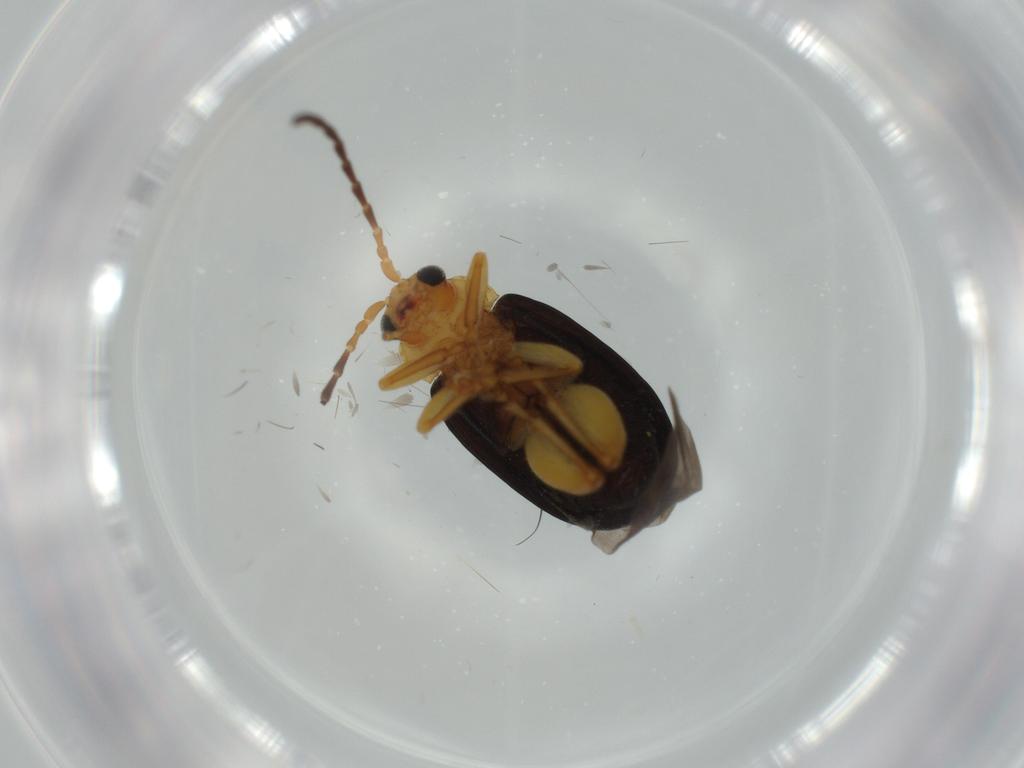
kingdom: Animalia
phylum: Arthropoda
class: Insecta
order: Coleoptera
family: Chrysomelidae
